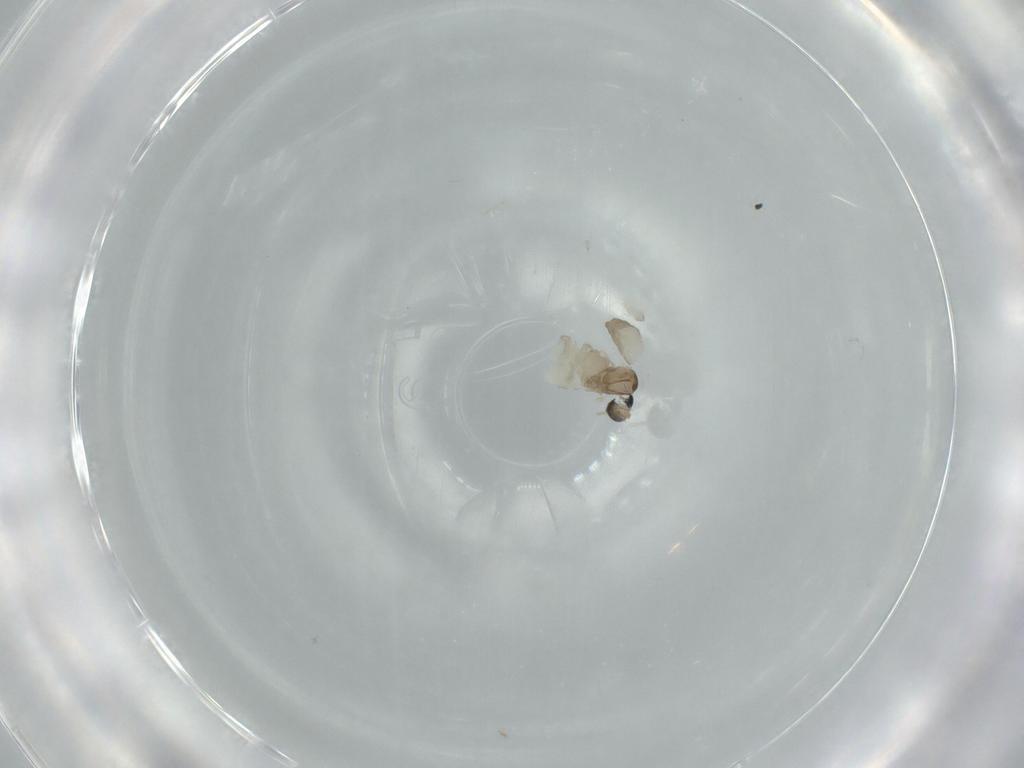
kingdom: Animalia
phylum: Arthropoda
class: Insecta
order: Diptera
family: Cecidomyiidae
